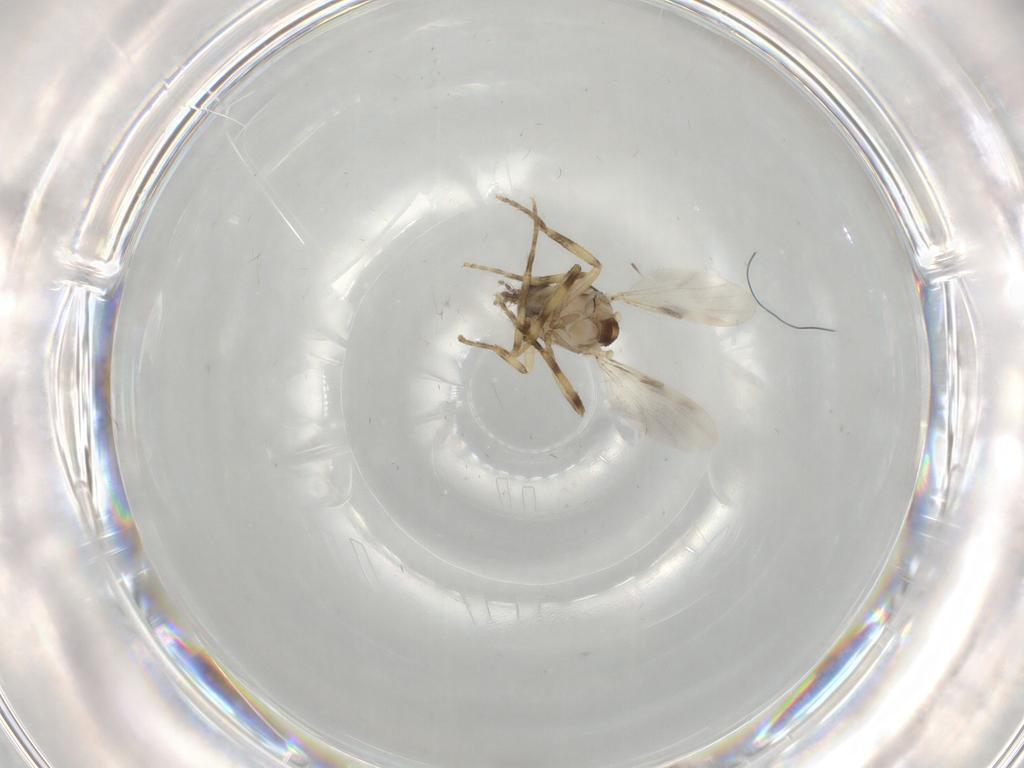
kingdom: Animalia
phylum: Arthropoda
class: Insecta
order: Diptera
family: Ceratopogonidae
